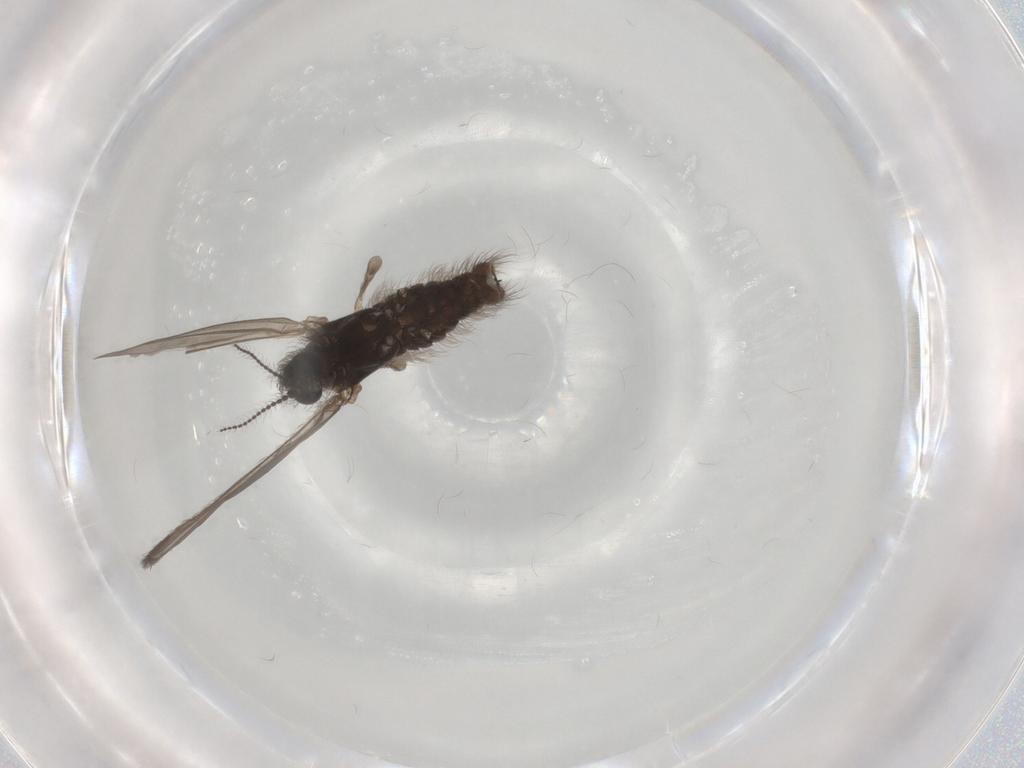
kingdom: Animalia
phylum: Arthropoda
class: Insecta
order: Diptera
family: Limoniidae
